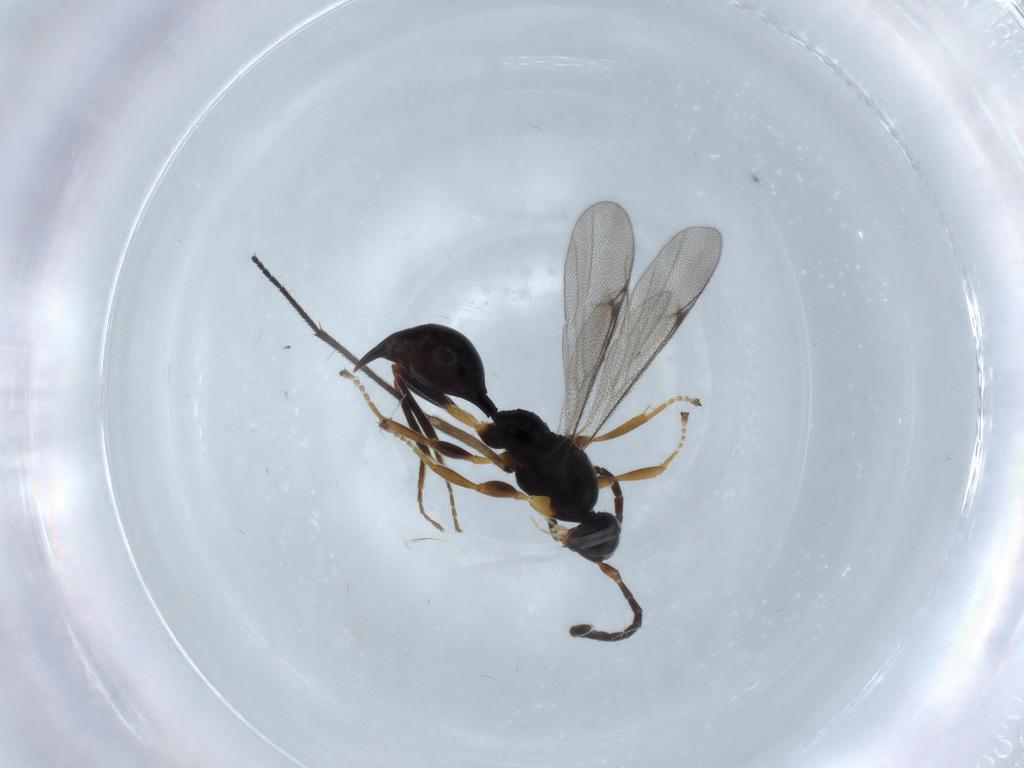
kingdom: Animalia
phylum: Arthropoda
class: Insecta
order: Hymenoptera
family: Proctotrupidae
